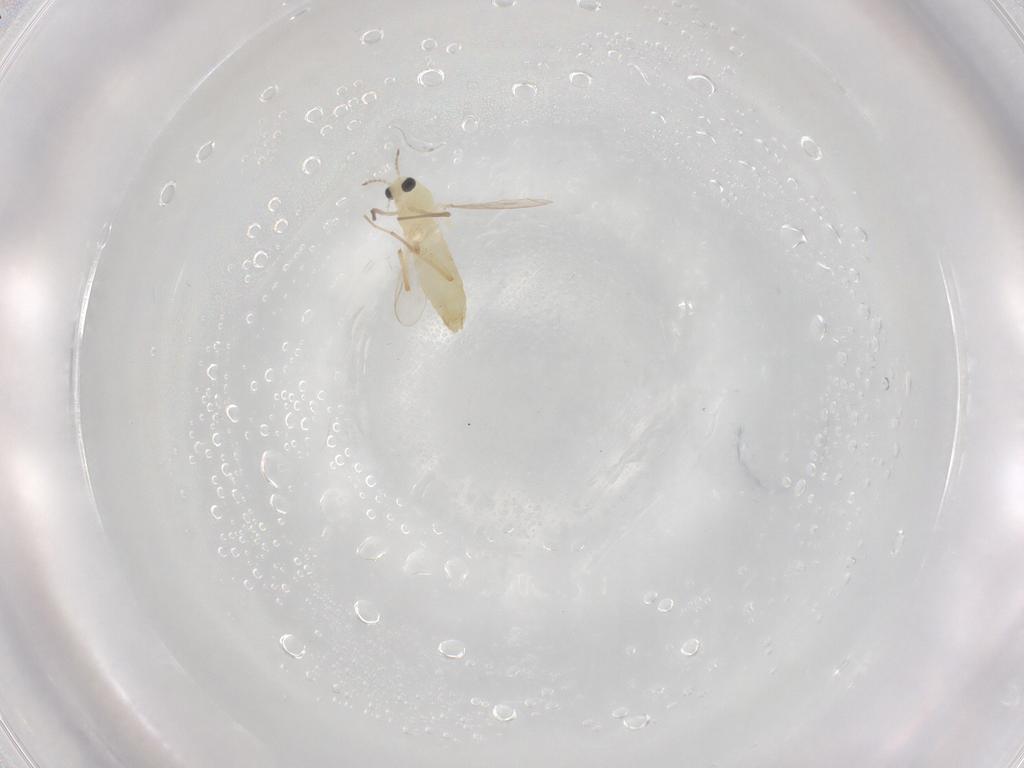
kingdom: Animalia
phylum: Arthropoda
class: Insecta
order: Diptera
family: Chironomidae
